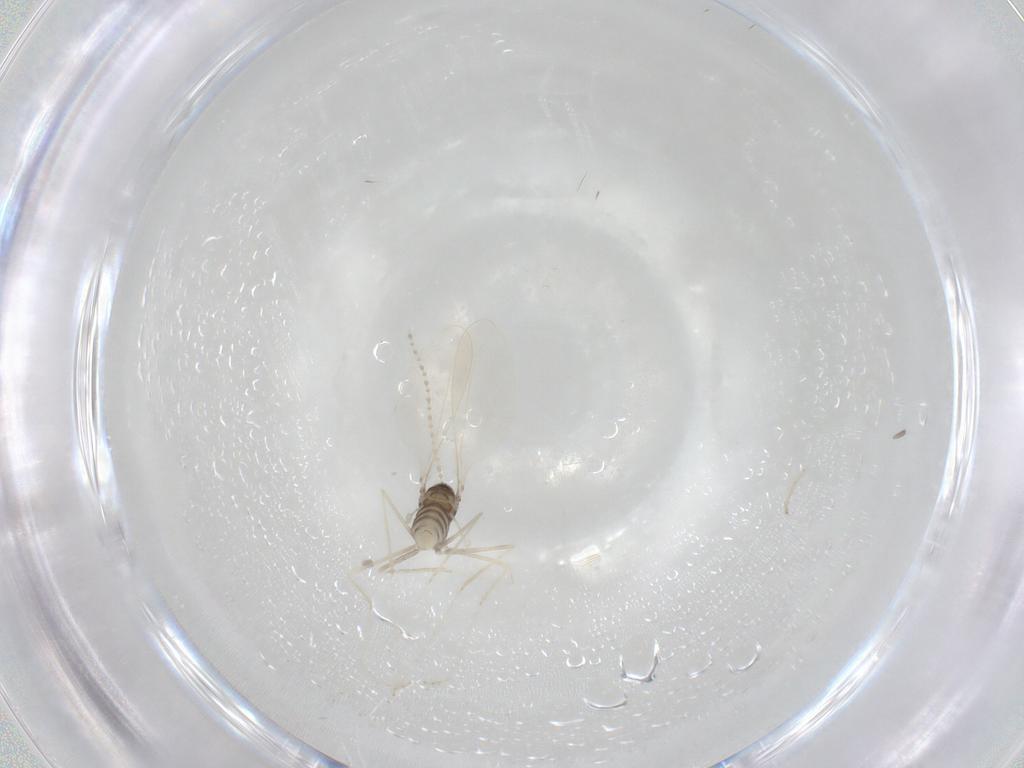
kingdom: Animalia
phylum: Arthropoda
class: Insecta
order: Diptera
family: Cecidomyiidae
